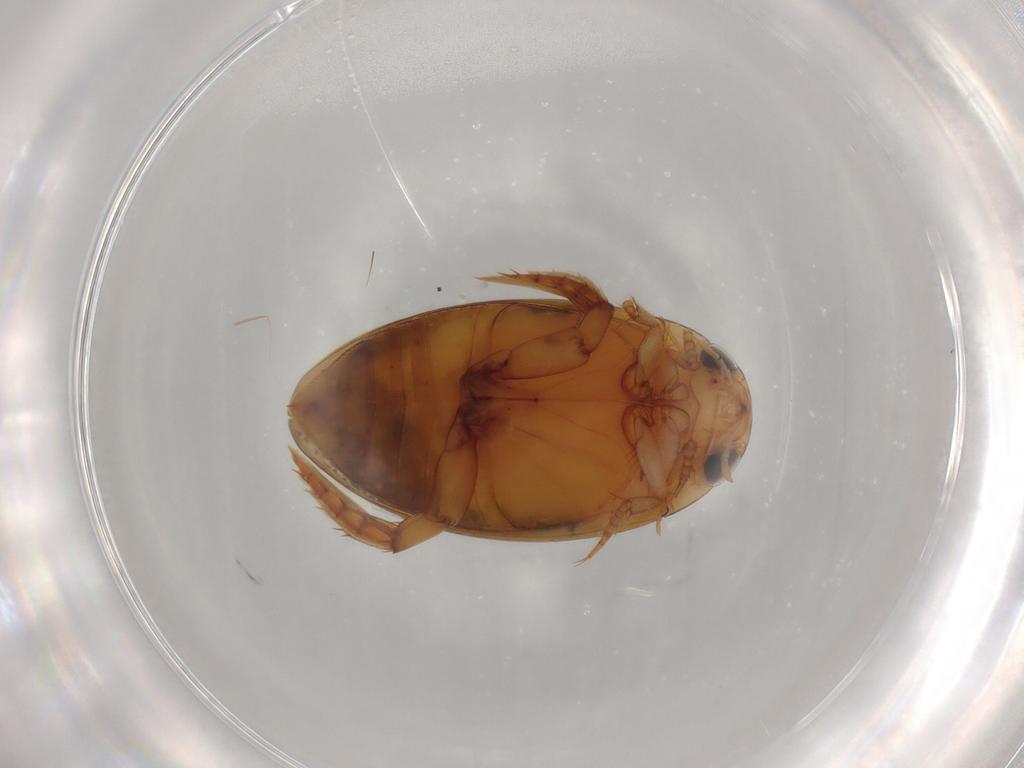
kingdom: Animalia
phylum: Arthropoda
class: Insecta
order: Coleoptera
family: Dytiscidae
